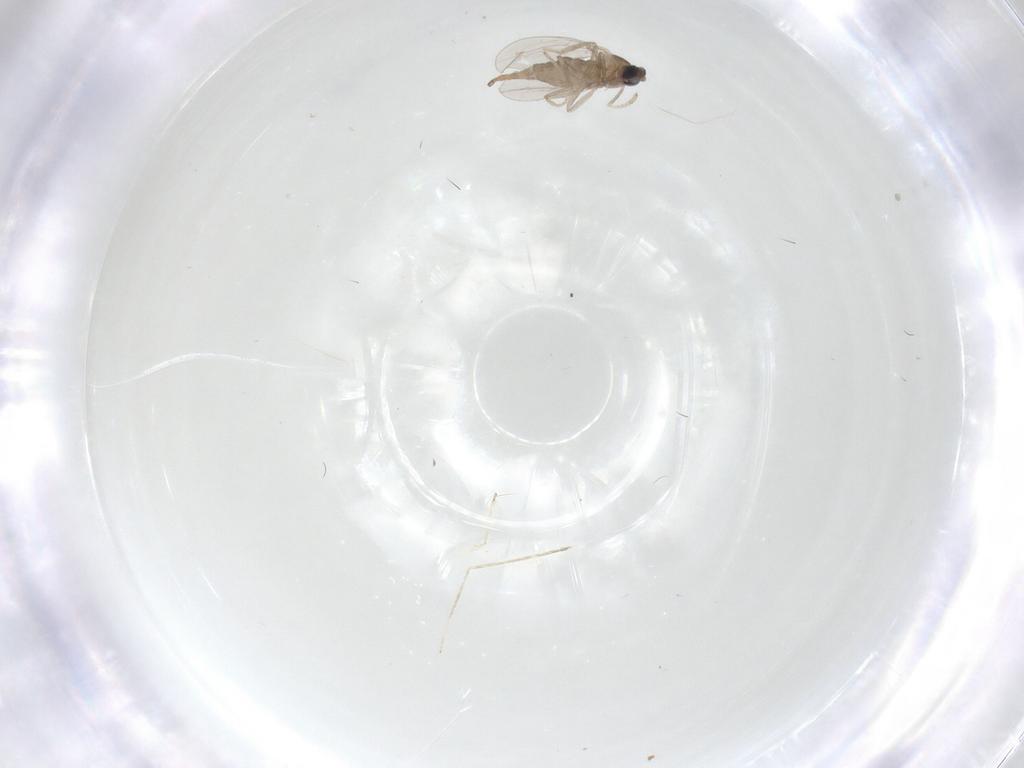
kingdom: Animalia
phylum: Arthropoda
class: Insecta
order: Diptera
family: Cecidomyiidae
